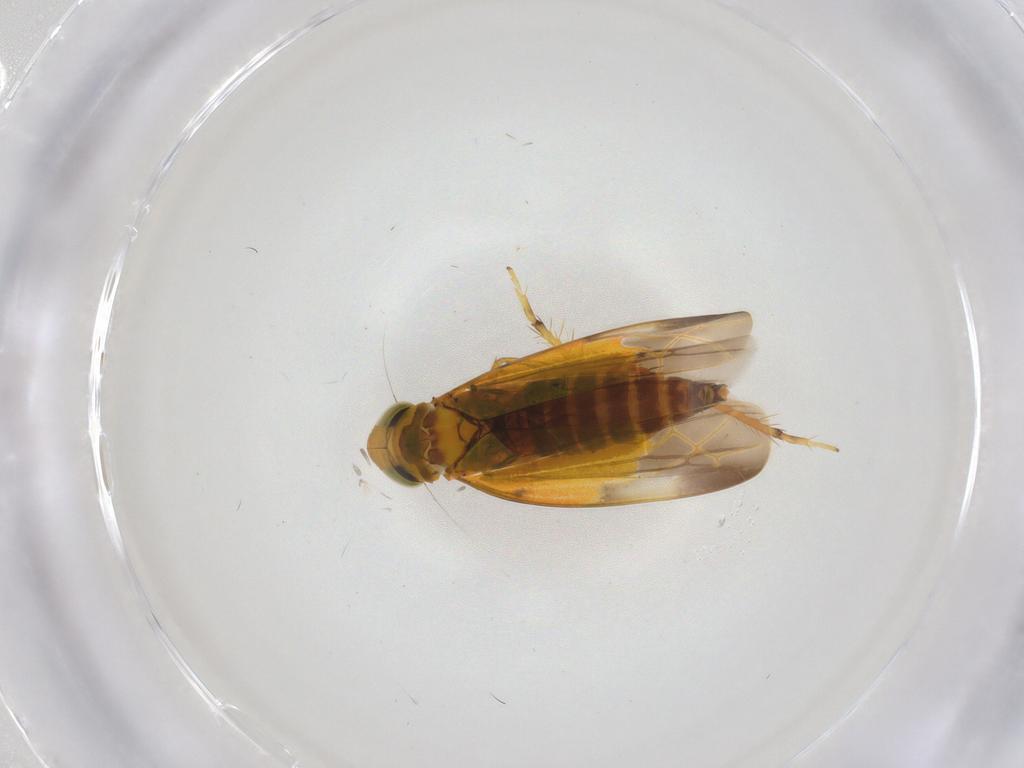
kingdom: Animalia
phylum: Arthropoda
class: Insecta
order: Hemiptera
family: Cicadellidae
